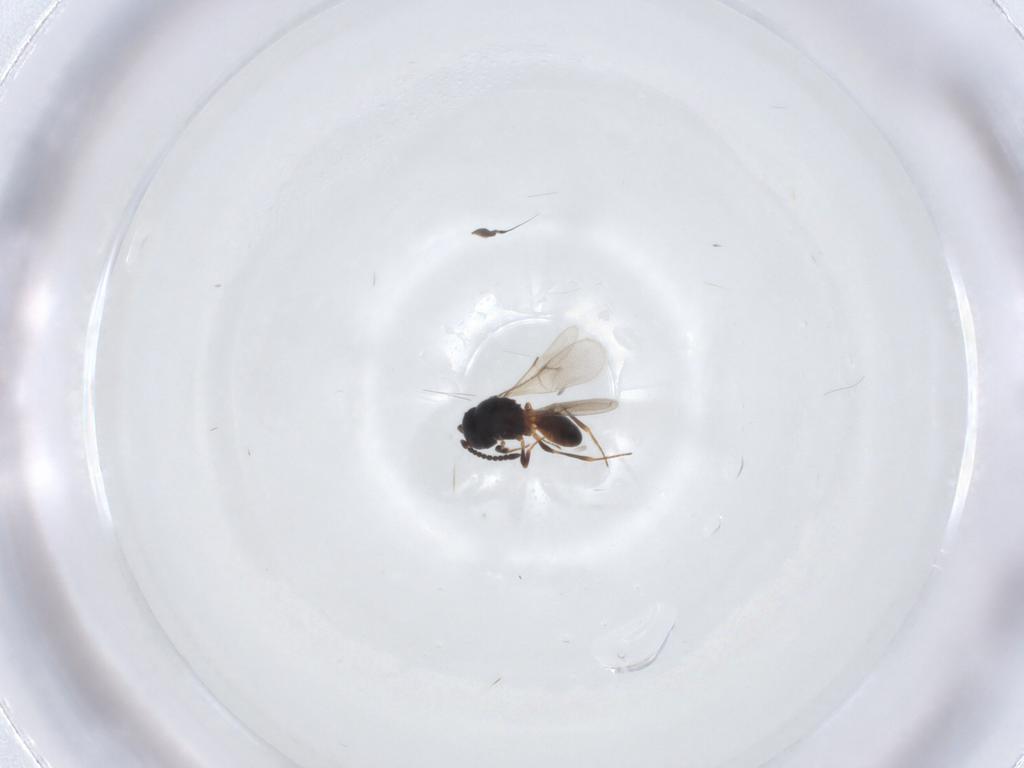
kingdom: Animalia
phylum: Arthropoda
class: Insecta
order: Hymenoptera
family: Scelionidae
